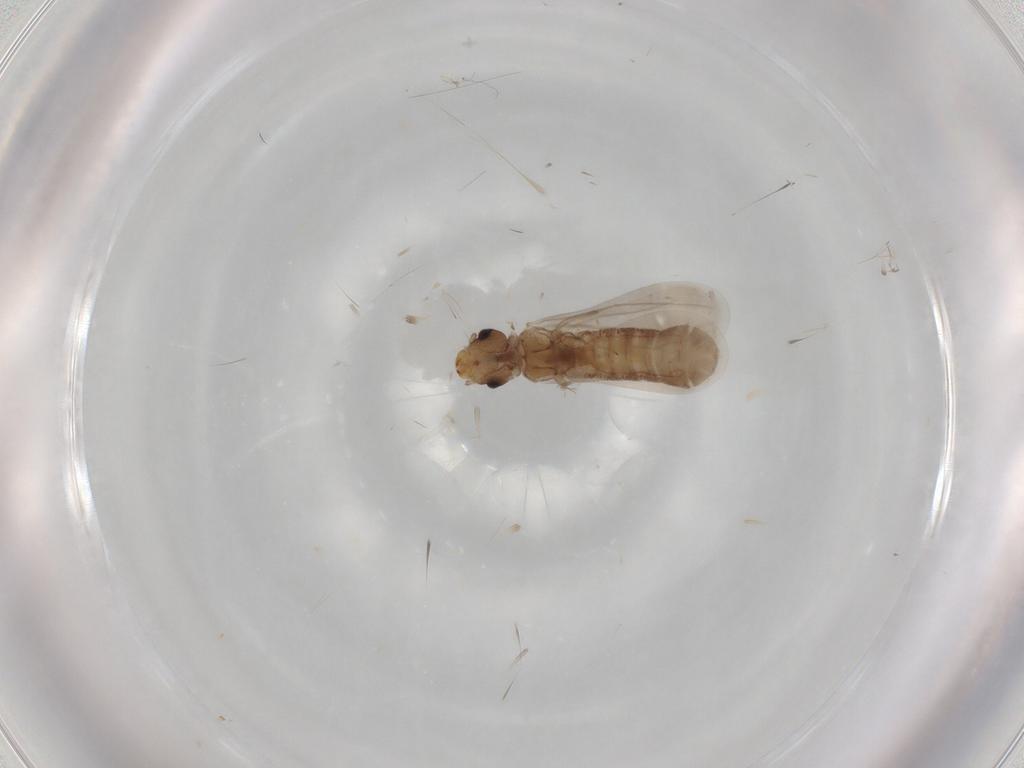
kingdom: Animalia
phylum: Arthropoda
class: Insecta
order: Psocodea
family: Liposcelididae
